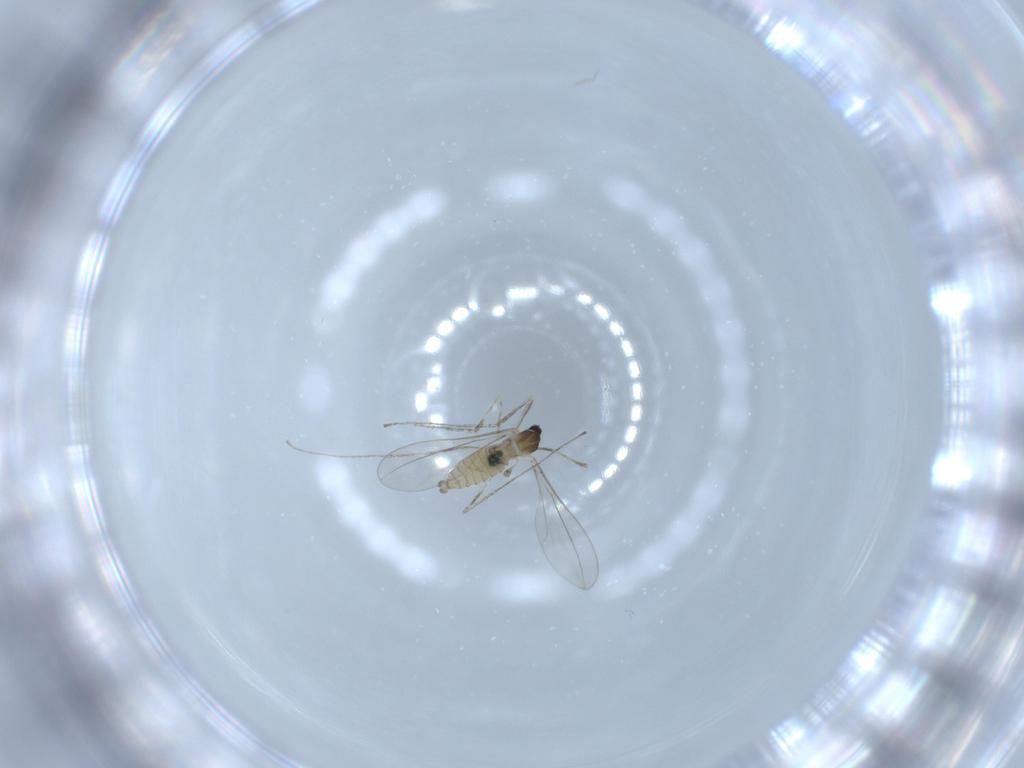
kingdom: Animalia
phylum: Arthropoda
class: Insecta
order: Diptera
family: Cecidomyiidae
